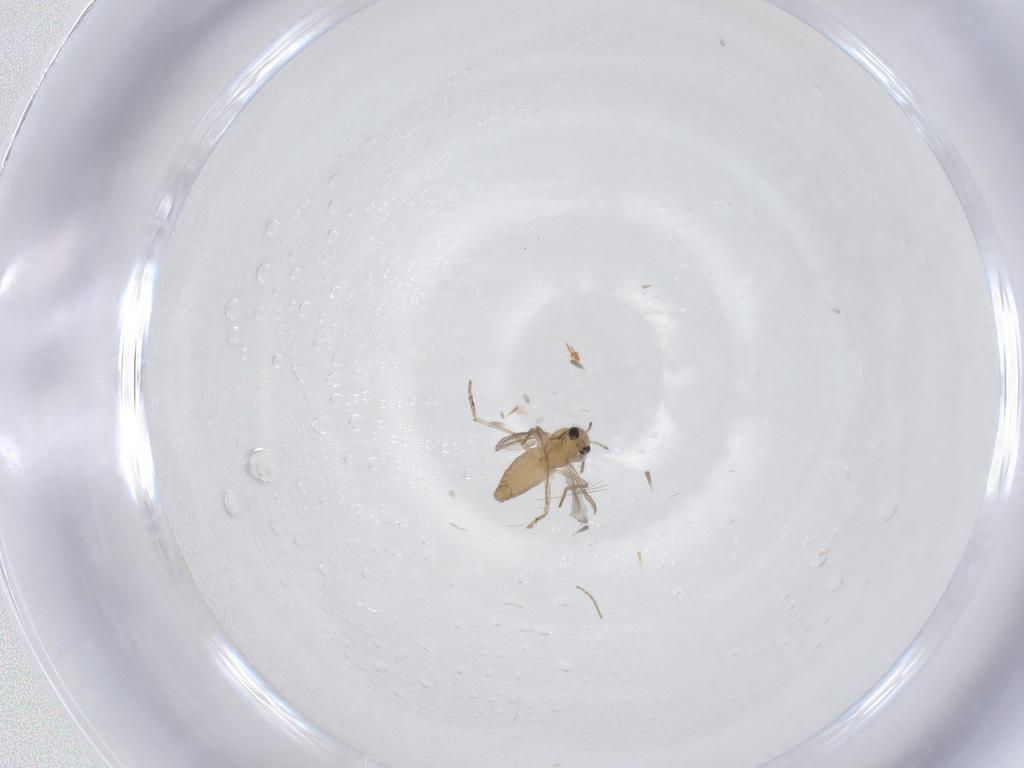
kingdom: Animalia
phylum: Arthropoda
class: Insecta
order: Diptera
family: Chironomidae
